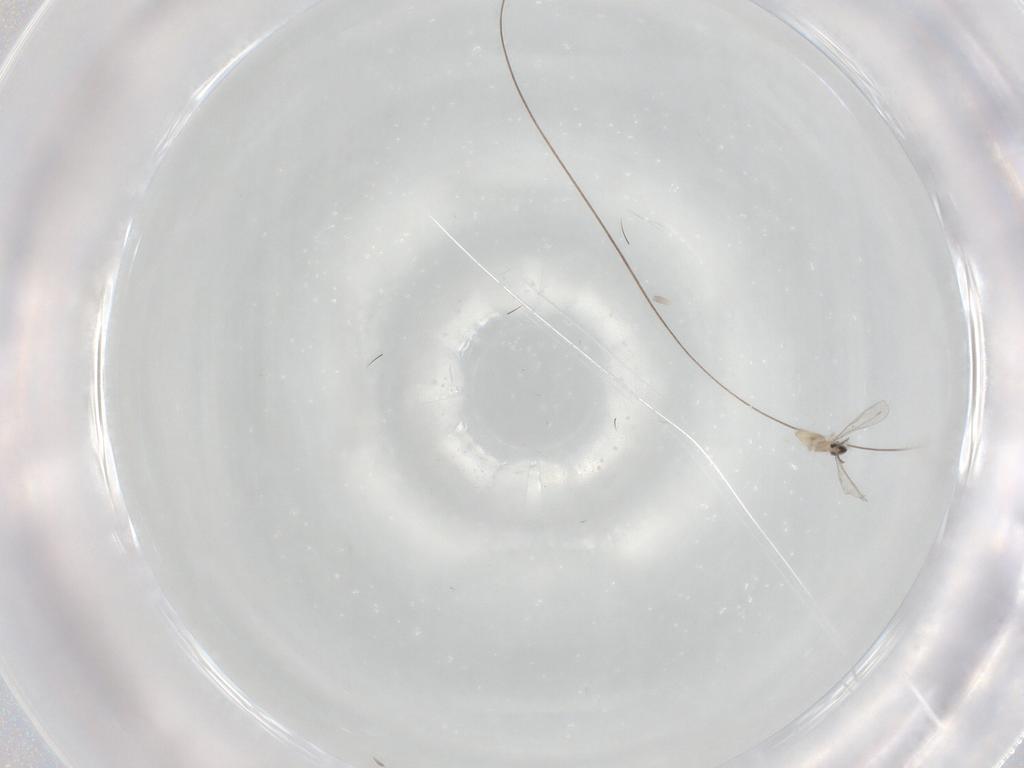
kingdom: Animalia
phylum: Arthropoda
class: Insecta
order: Diptera
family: Cecidomyiidae
